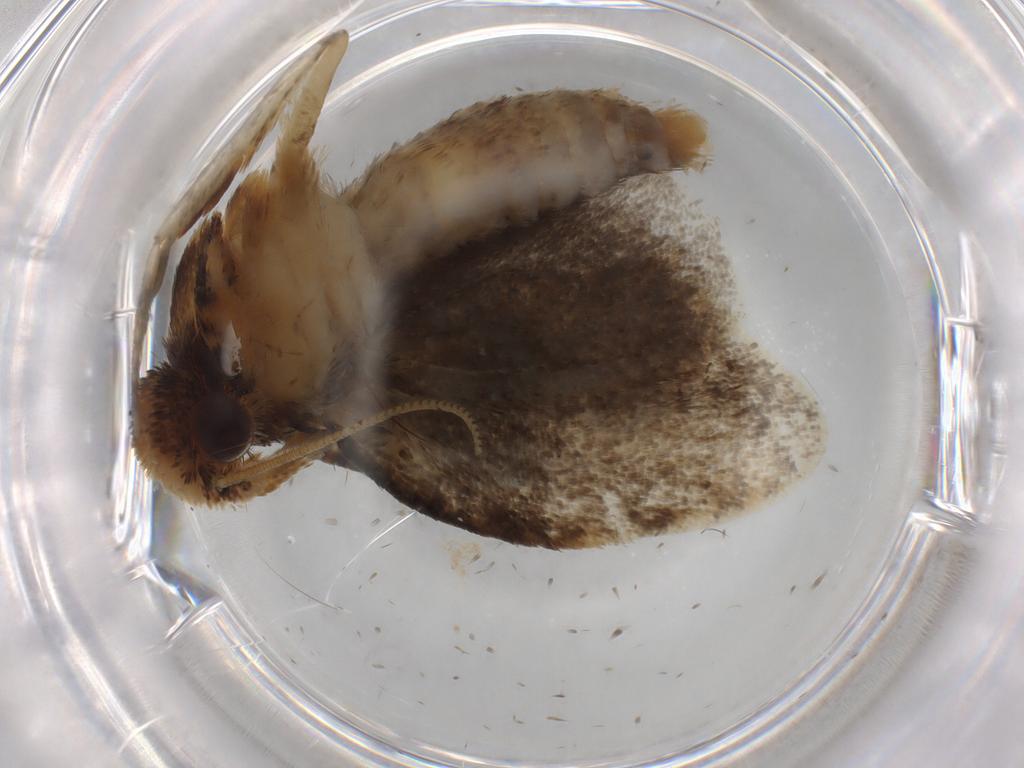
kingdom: Animalia
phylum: Arthropoda
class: Insecta
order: Lepidoptera
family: Tineidae
